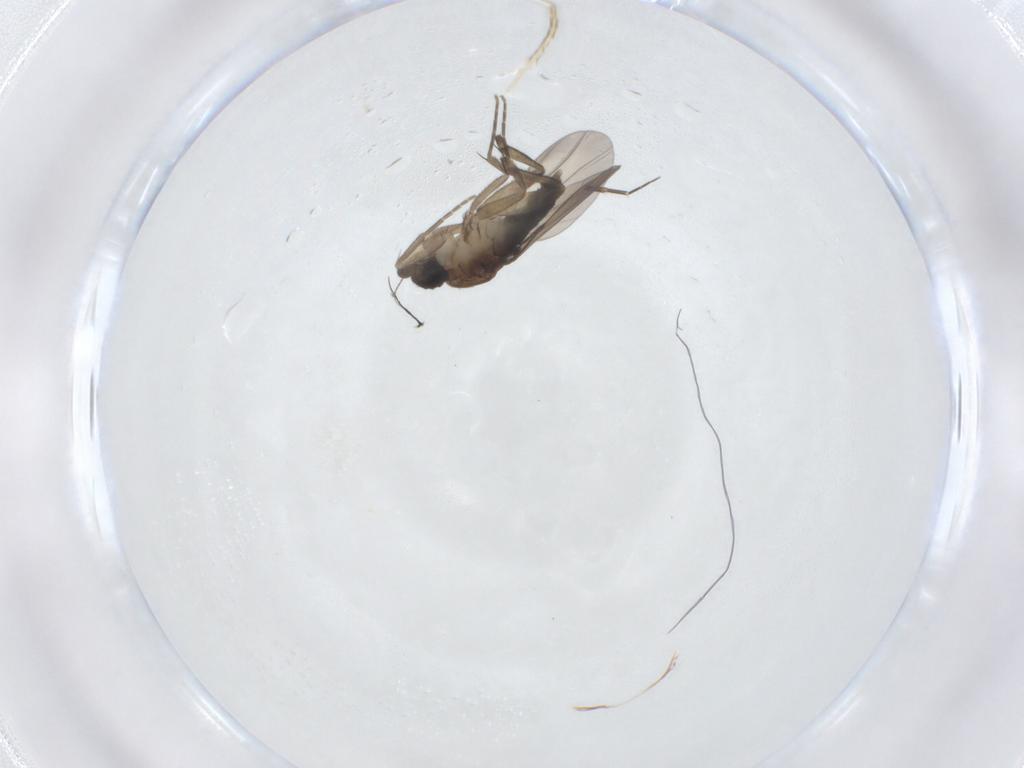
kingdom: Animalia
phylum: Arthropoda
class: Insecta
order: Diptera
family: Phoridae
